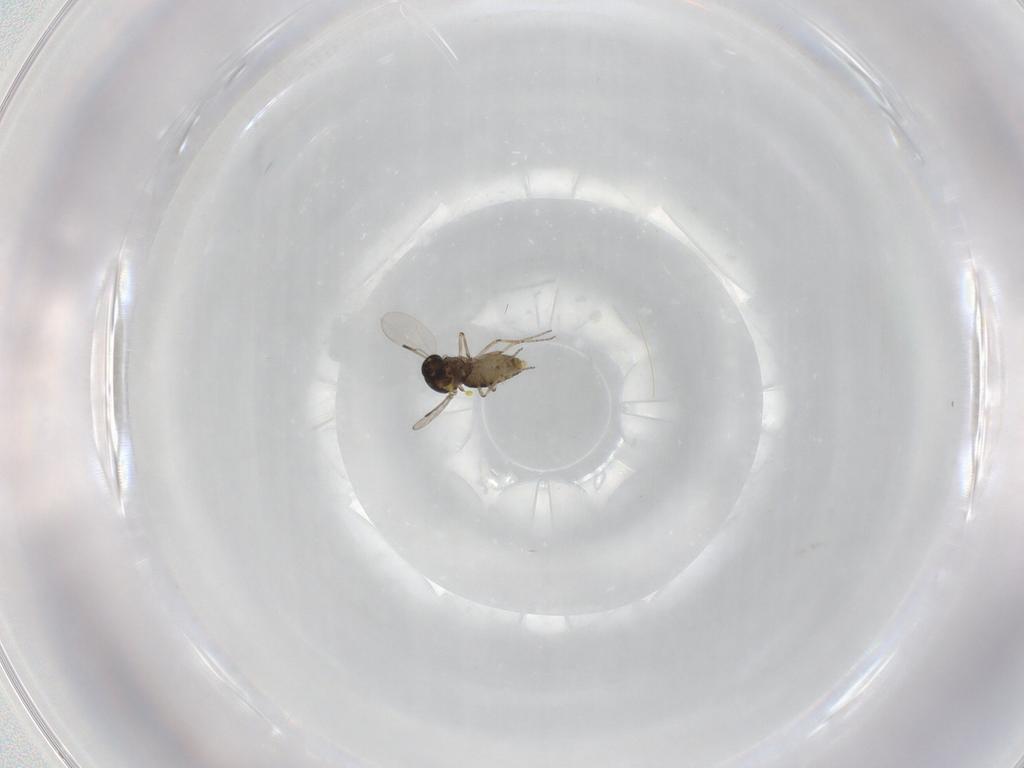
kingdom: Animalia
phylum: Arthropoda
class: Insecta
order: Diptera
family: Ceratopogonidae
